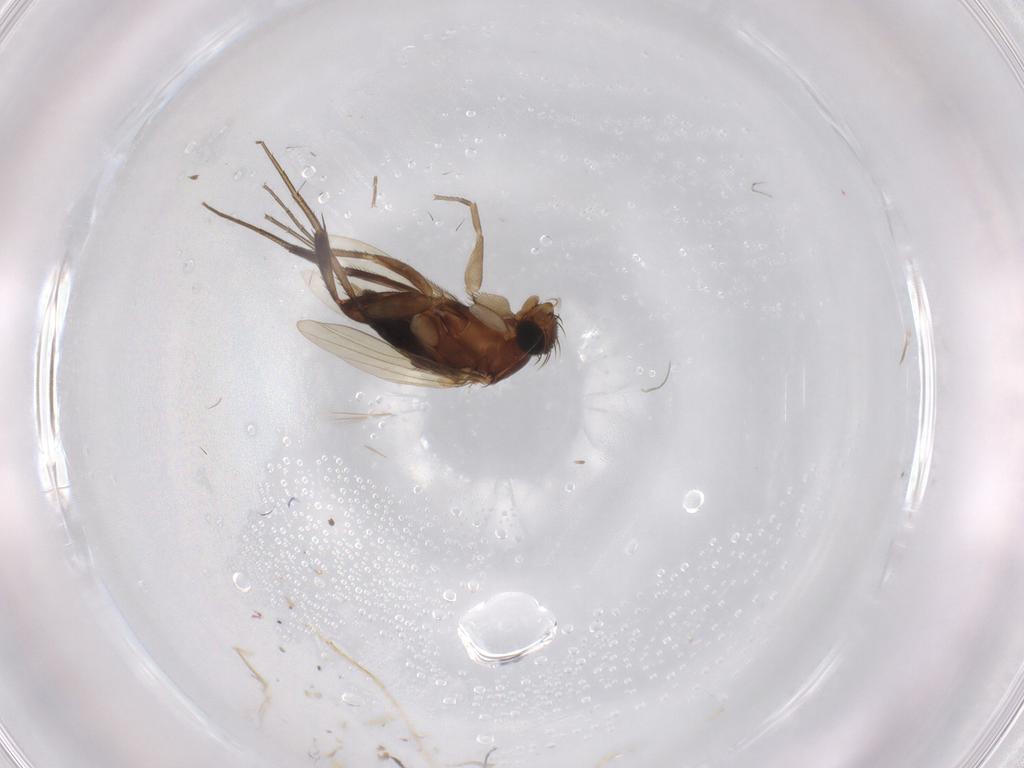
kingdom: Animalia
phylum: Arthropoda
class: Insecta
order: Diptera
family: Phoridae
